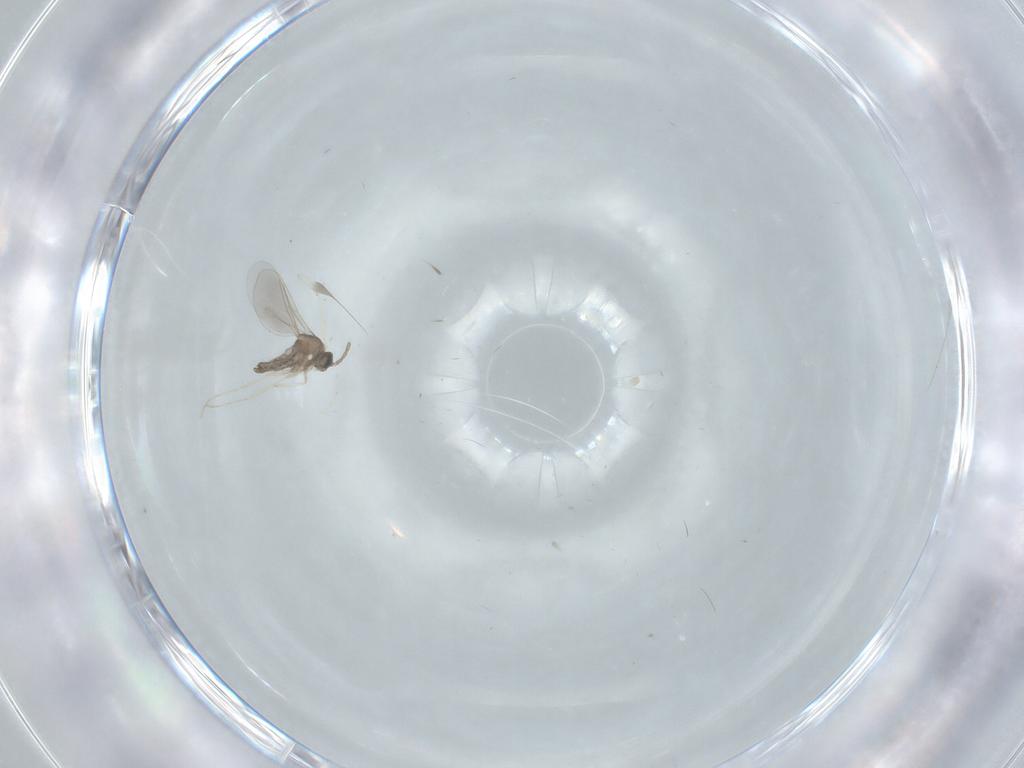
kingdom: Animalia
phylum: Arthropoda
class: Insecta
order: Diptera
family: Cecidomyiidae
